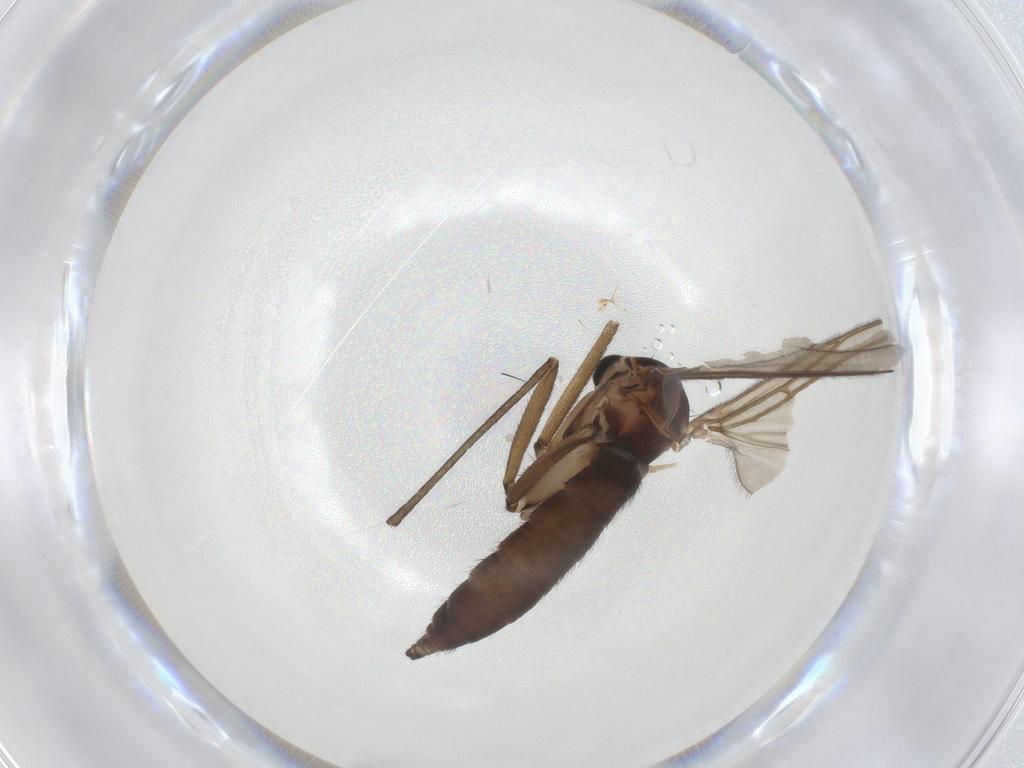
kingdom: Animalia
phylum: Arthropoda
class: Insecta
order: Diptera
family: Sciaridae
